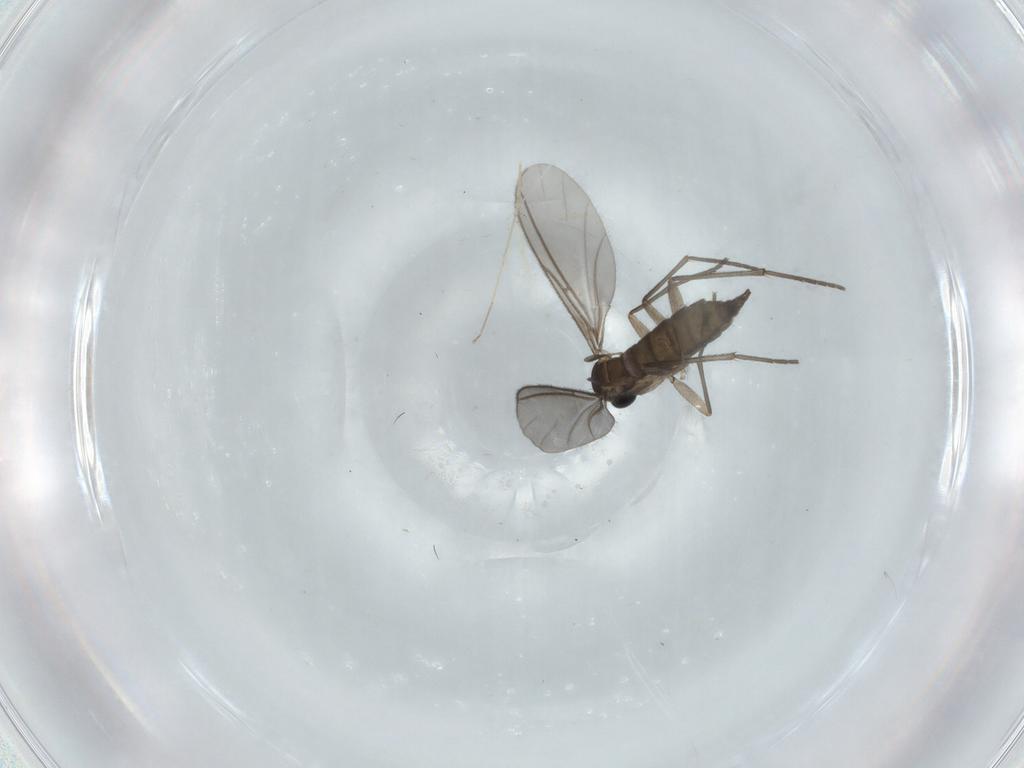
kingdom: Animalia
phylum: Arthropoda
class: Insecta
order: Diptera
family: Sciaridae
